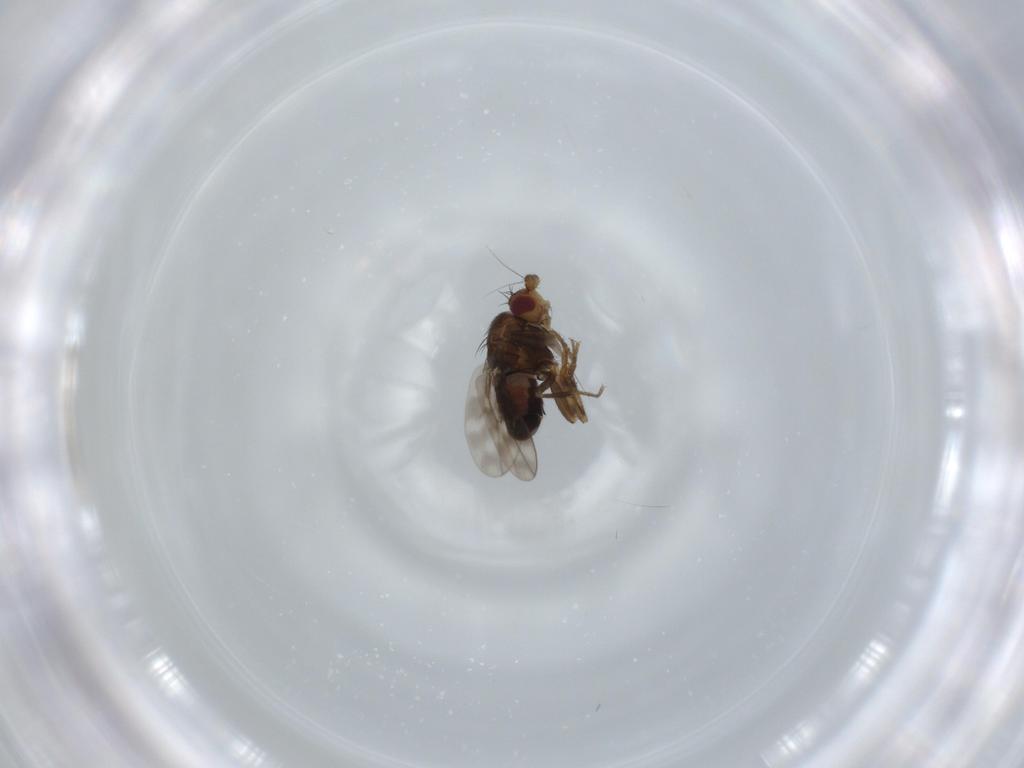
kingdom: Animalia
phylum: Arthropoda
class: Insecta
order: Diptera
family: Sphaeroceridae
